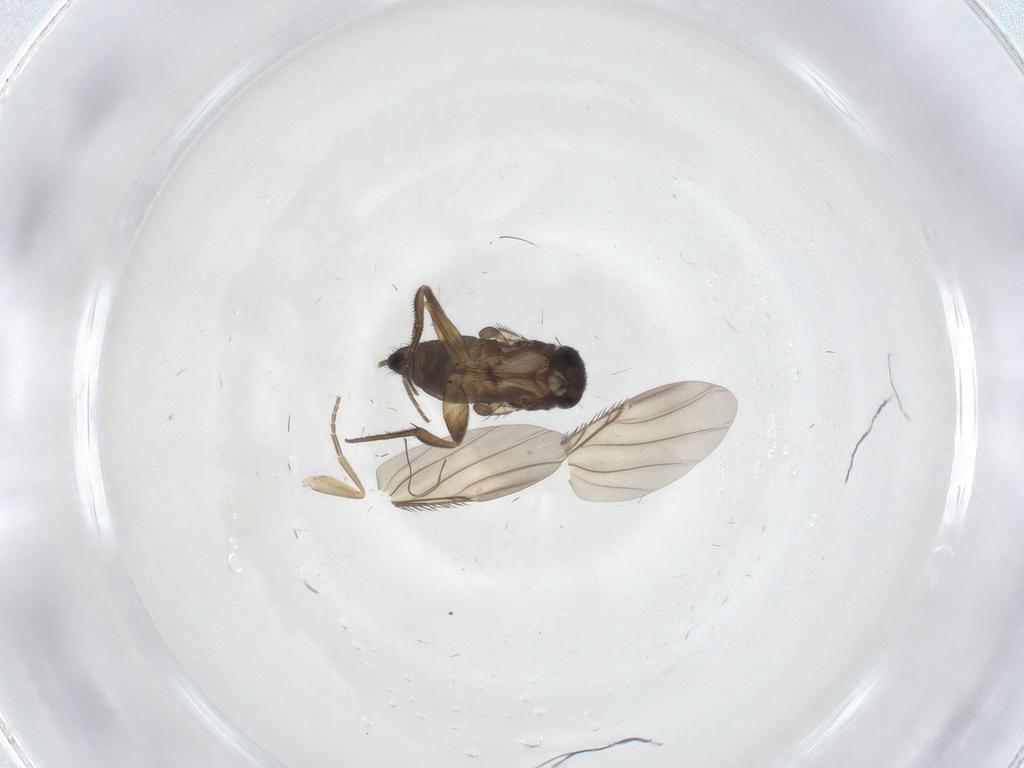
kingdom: Animalia
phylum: Arthropoda
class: Insecta
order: Diptera
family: Phoridae
